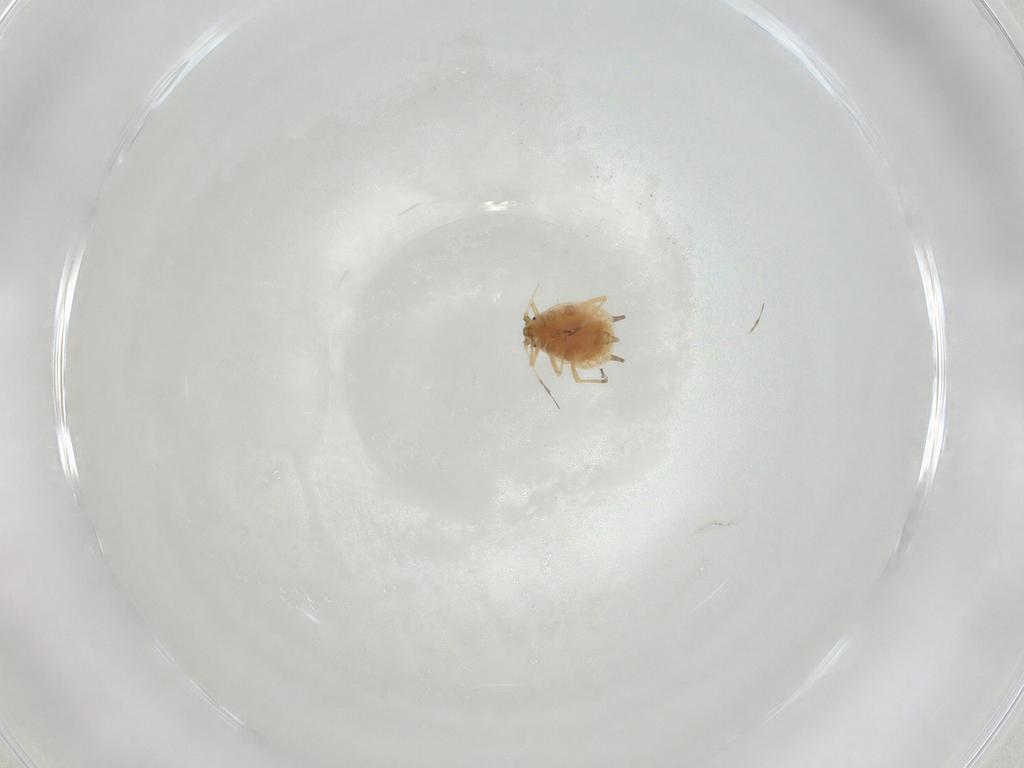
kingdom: Animalia
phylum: Arthropoda
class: Insecta
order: Hemiptera
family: Aphididae
